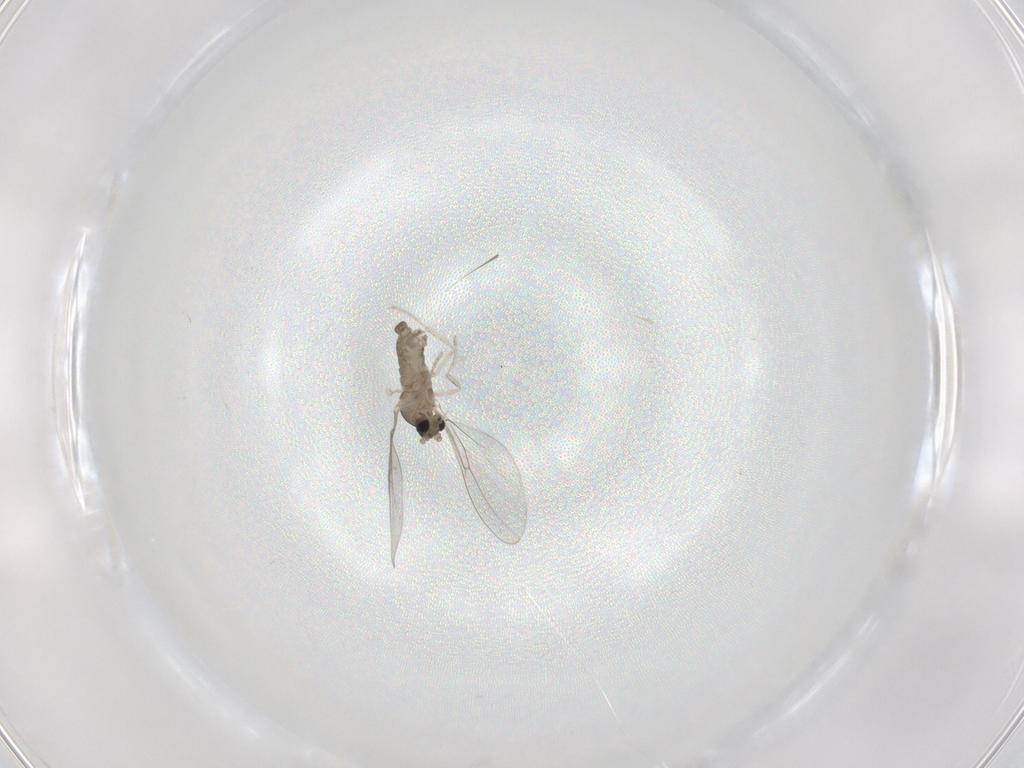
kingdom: Animalia
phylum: Arthropoda
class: Insecta
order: Diptera
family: Cecidomyiidae
